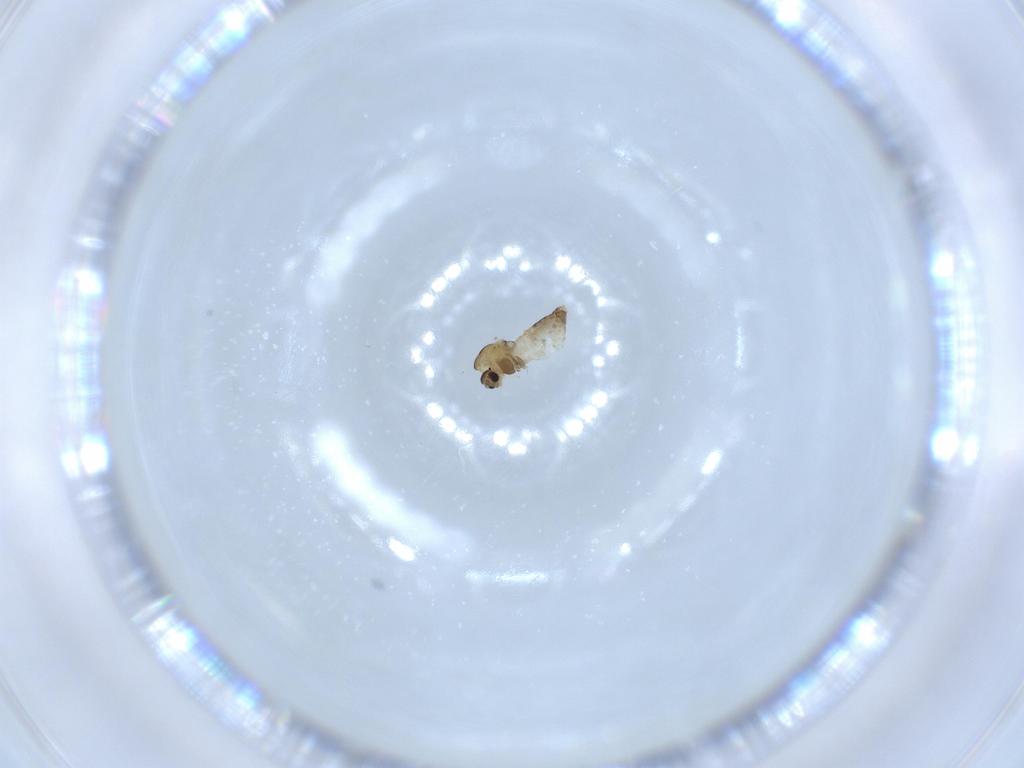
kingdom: Animalia
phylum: Arthropoda
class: Insecta
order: Diptera
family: Chironomidae
